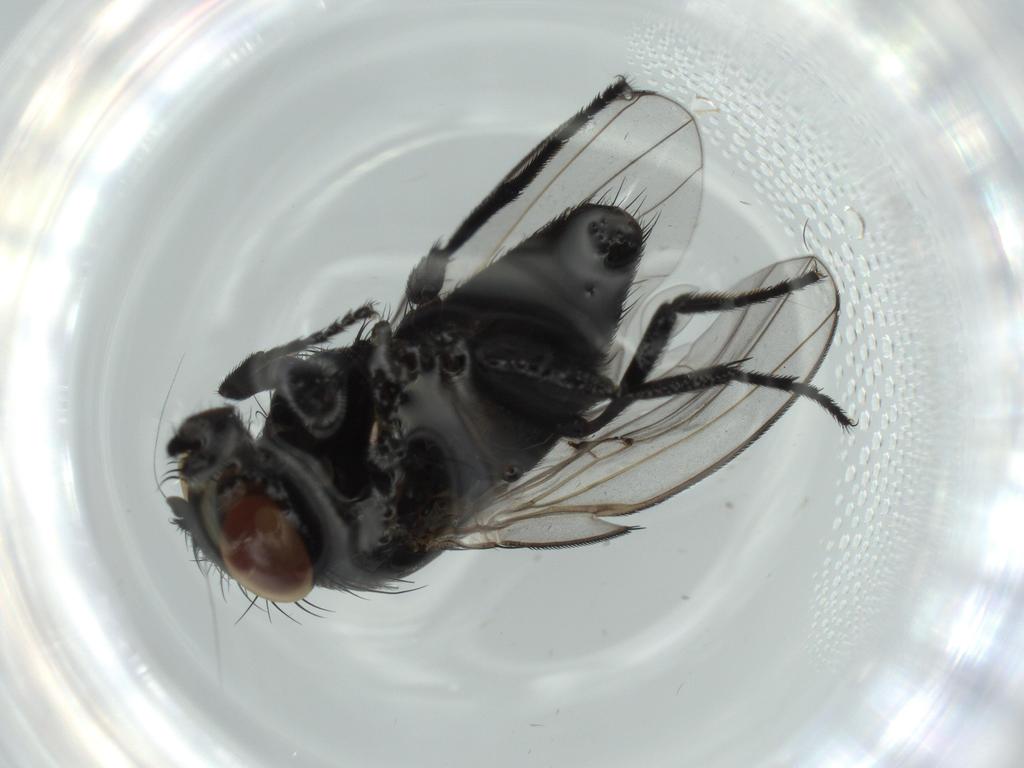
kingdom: Animalia
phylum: Arthropoda
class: Insecta
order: Diptera
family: Milichiidae
